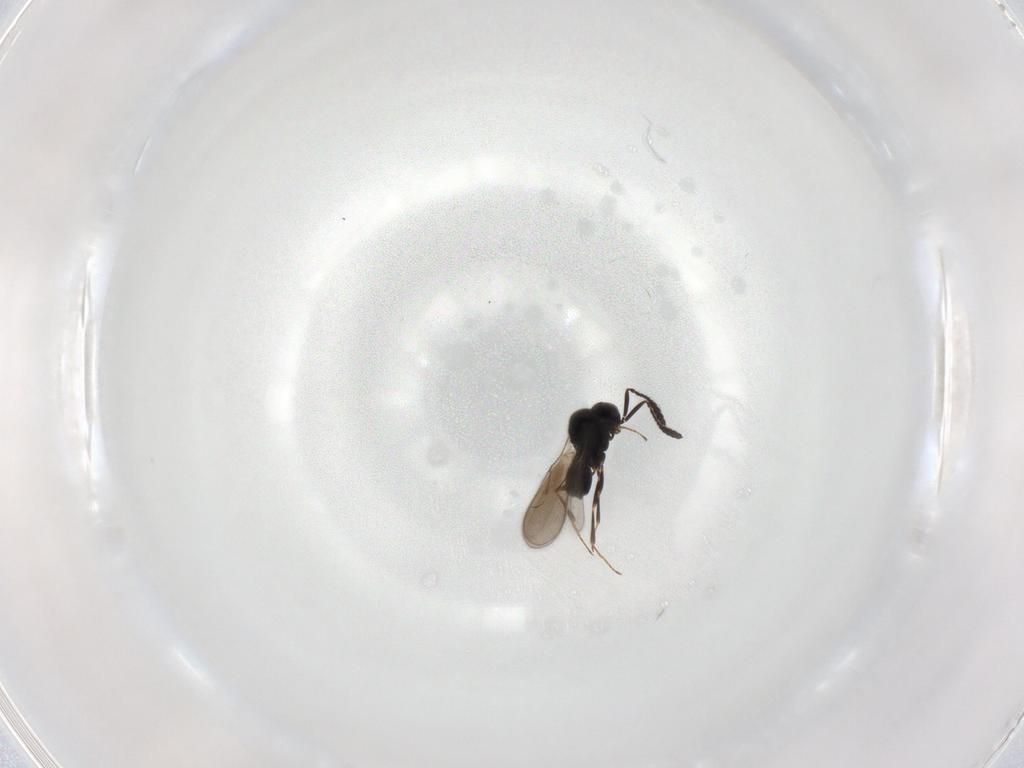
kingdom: Animalia
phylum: Arthropoda
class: Insecta
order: Hymenoptera
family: Scelionidae
